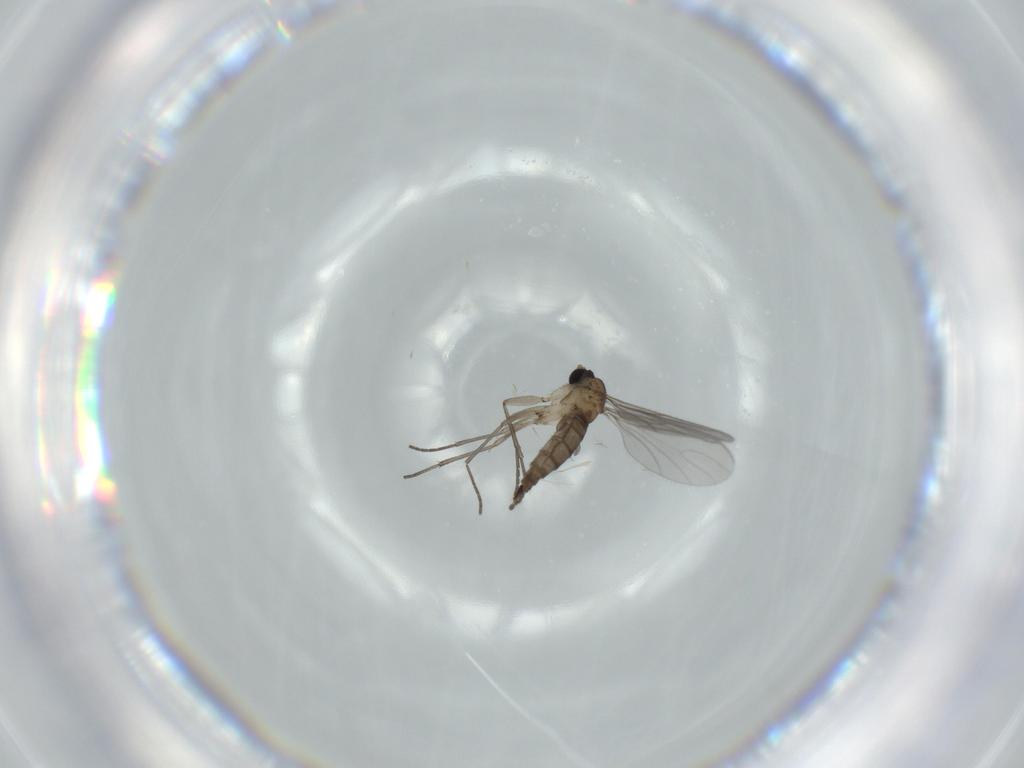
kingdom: Animalia
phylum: Arthropoda
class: Insecta
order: Diptera
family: Sciaridae
